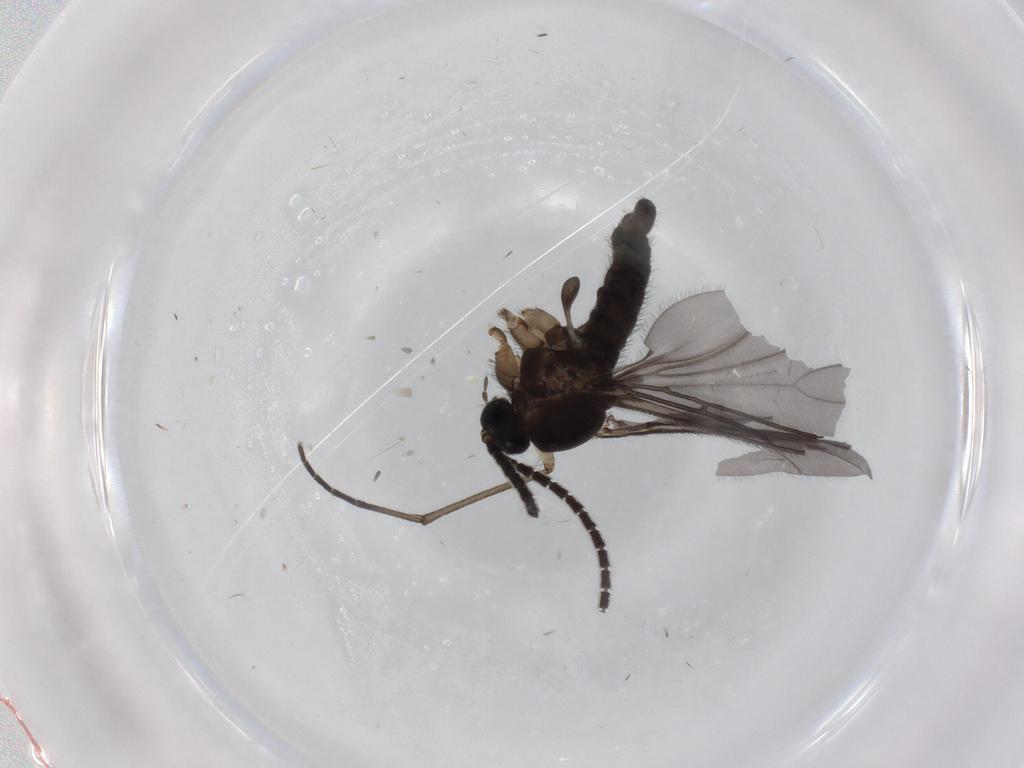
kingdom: Animalia
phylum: Arthropoda
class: Insecta
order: Diptera
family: Sciaridae
